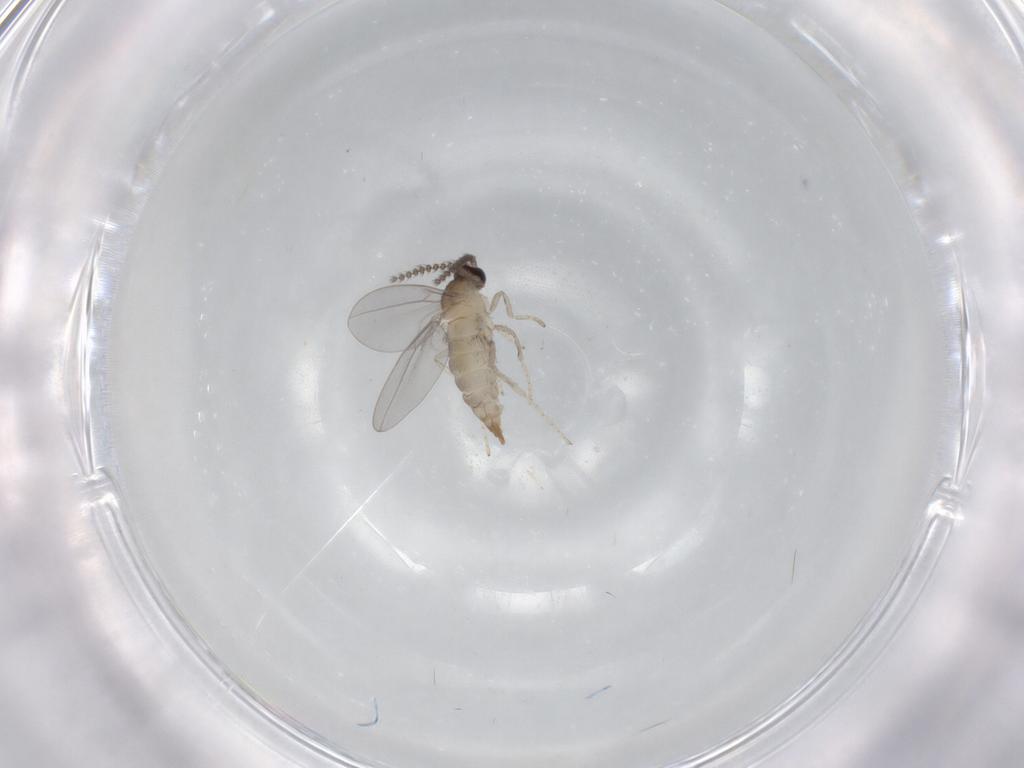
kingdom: Animalia
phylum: Arthropoda
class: Insecta
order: Diptera
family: Cecidomyiidae
